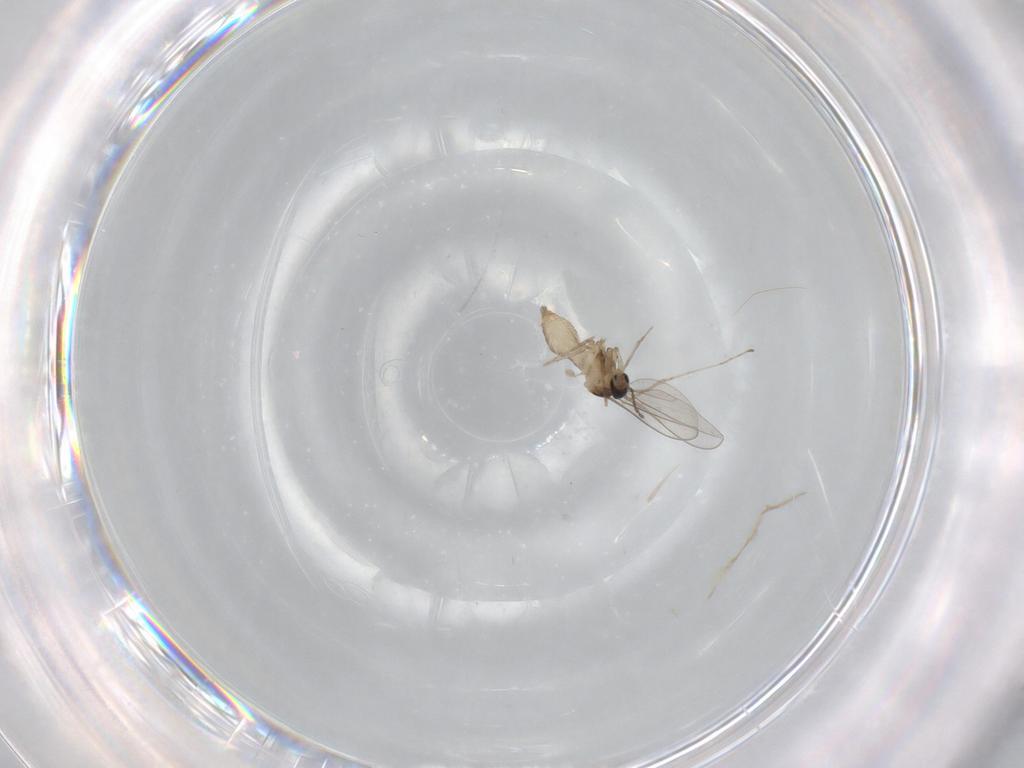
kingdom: Animalia
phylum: Arthropoda
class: Insecta
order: Diptera
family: Cecidomyiidae
